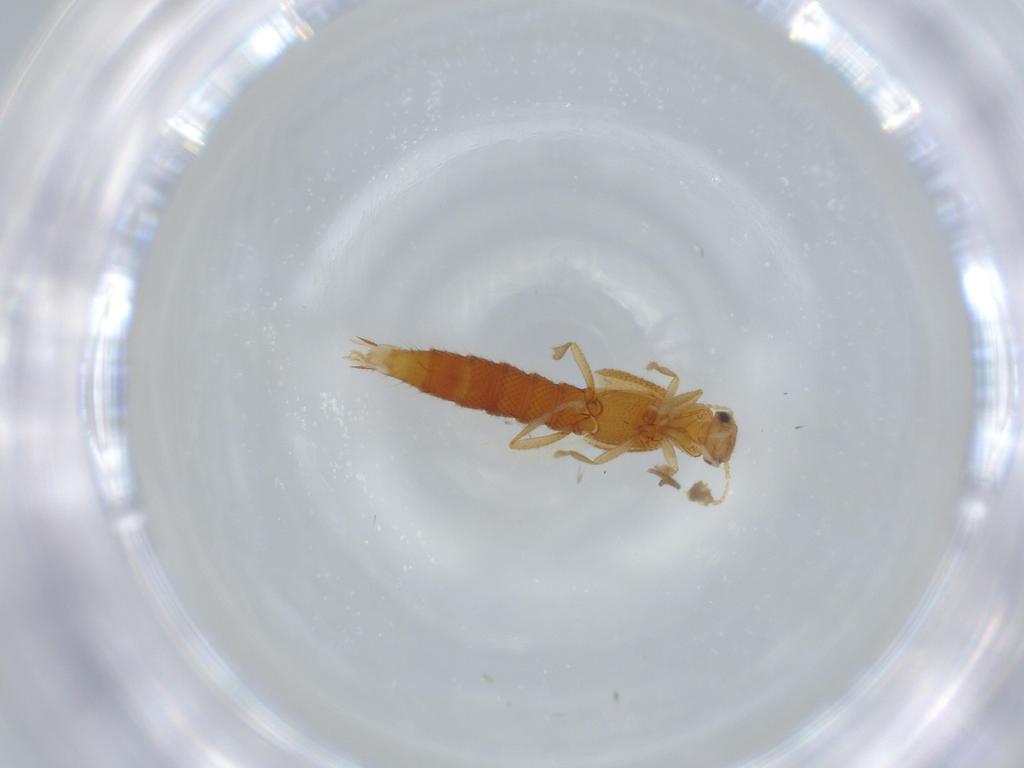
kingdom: Animalia
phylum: Arthropoda
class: Insecta
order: Coleoptera
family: Staphylinidae
